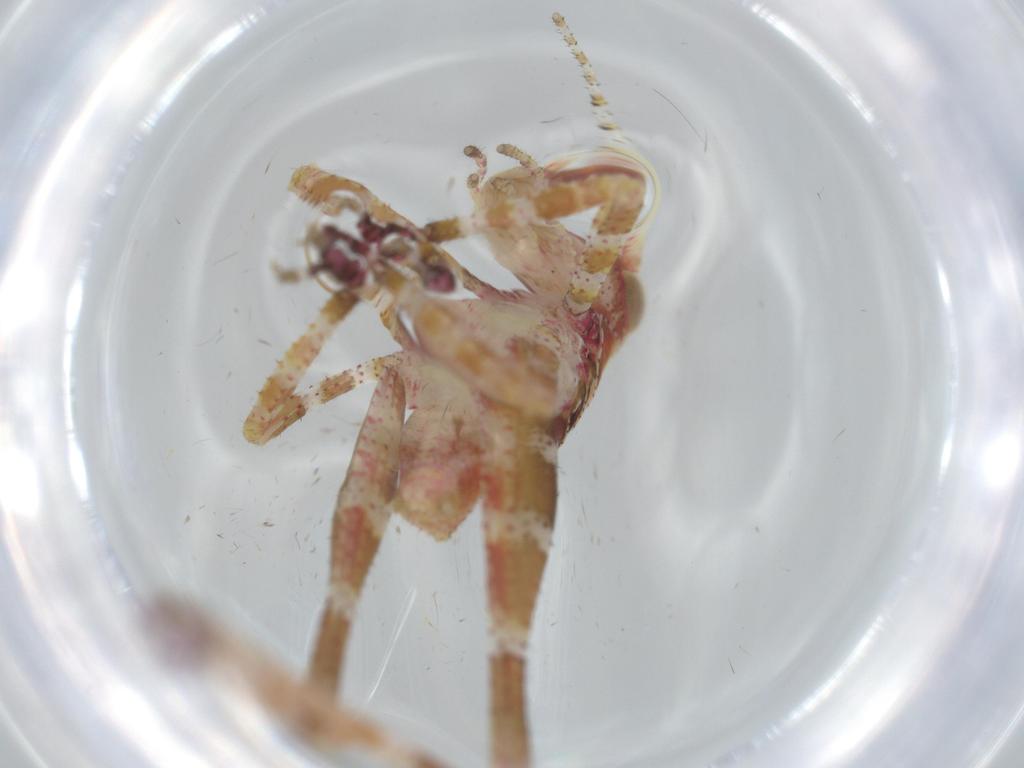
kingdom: Animalia
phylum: Arthropoda
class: Insecta
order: Orthoptera
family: Tettigoniidae
